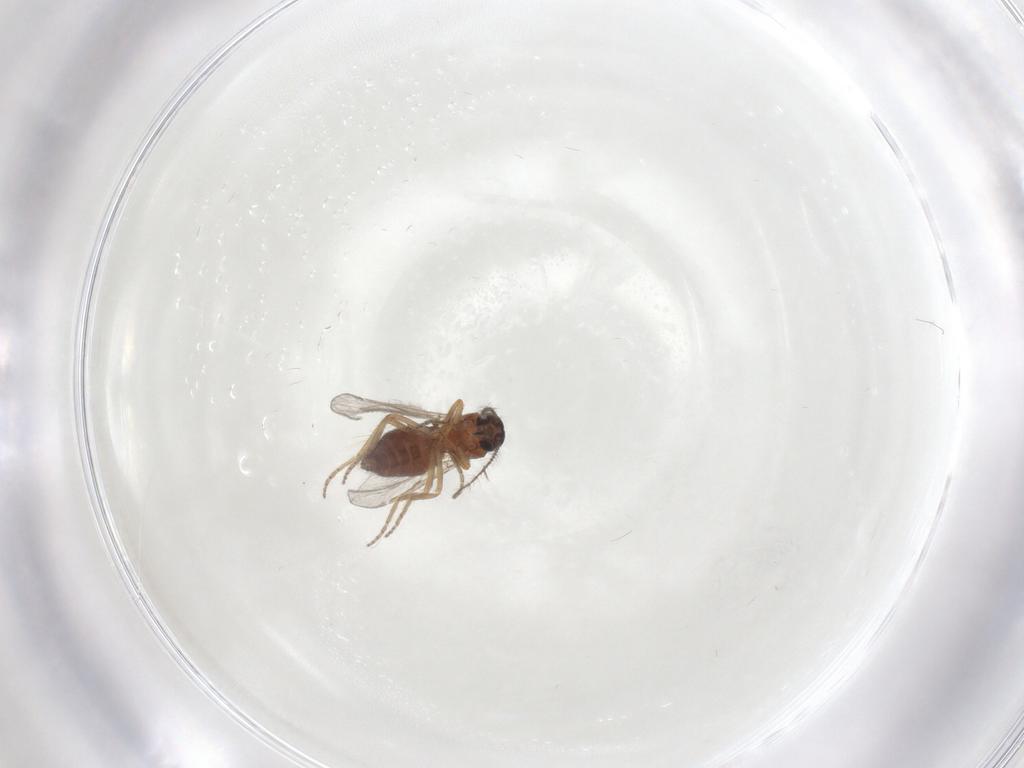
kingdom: Animalia
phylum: Arthropoda
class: Insecta
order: Diptera
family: Ceratopogonidae
